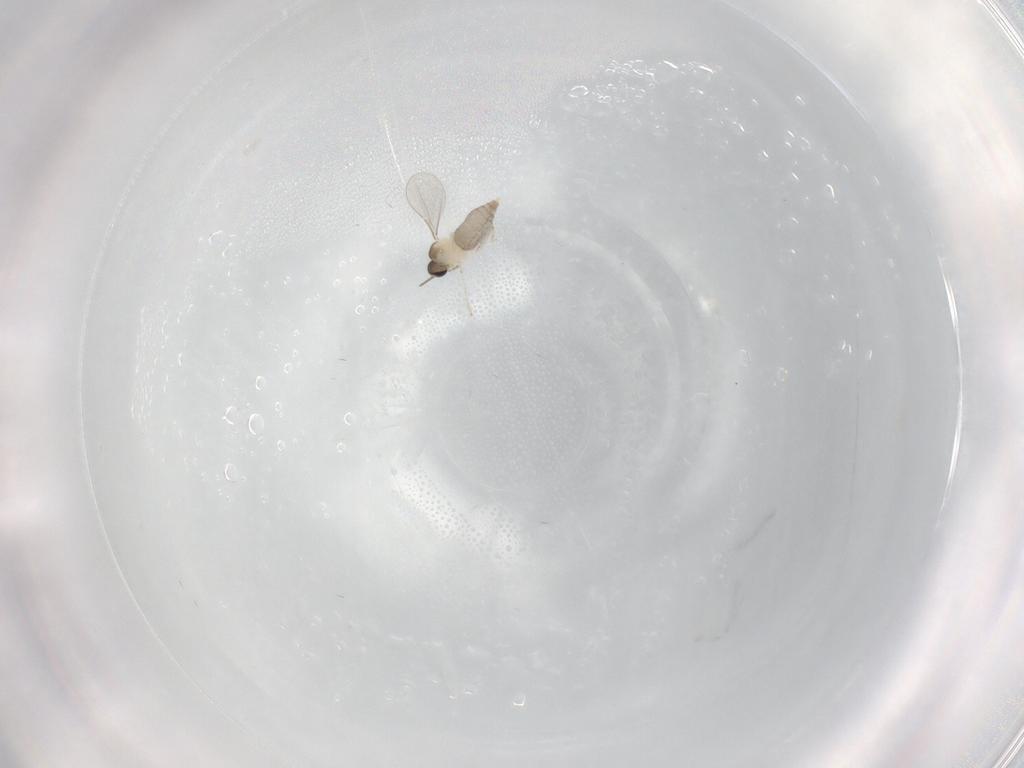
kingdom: Animalia
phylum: Arthropoda
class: Insecta
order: Diptera
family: Cecidomyiidae
